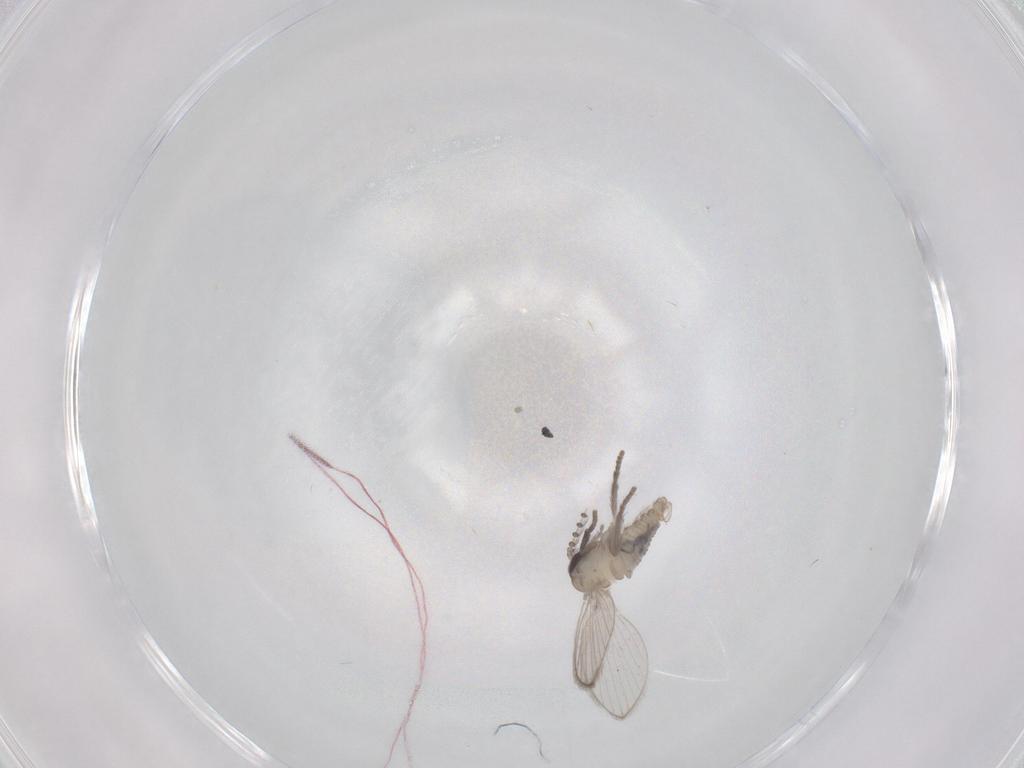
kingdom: Animalia
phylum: Arthropoda
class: Insecta
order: Diptera
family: Psychodidae
